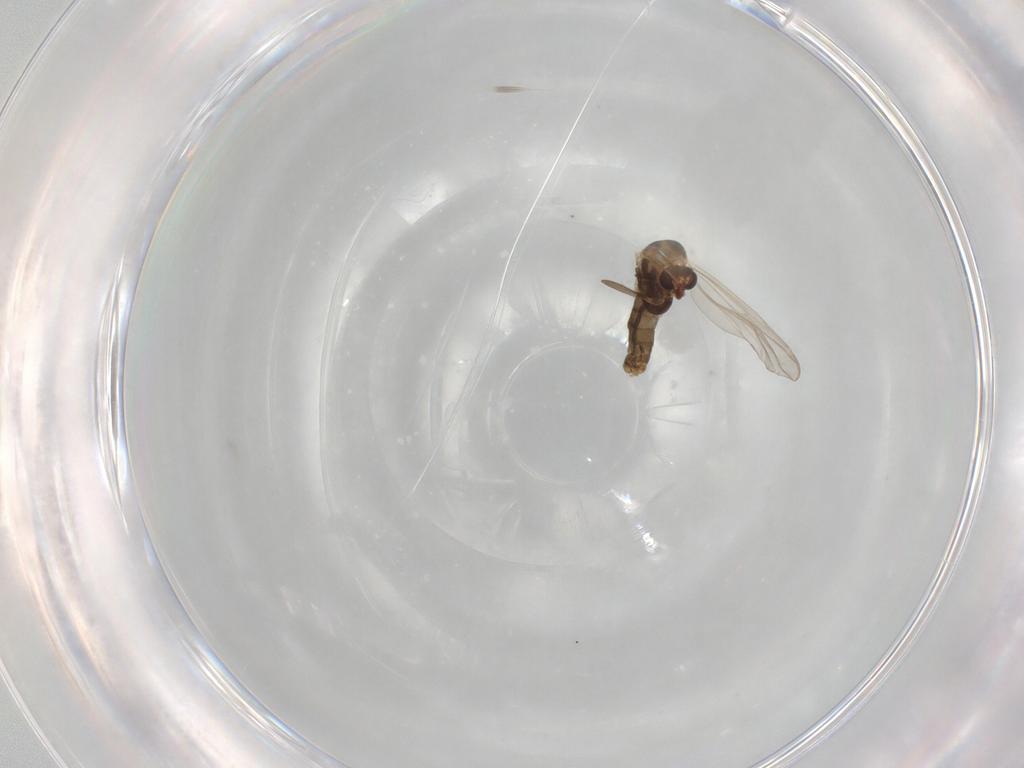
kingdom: Animalia
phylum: Arthropoda
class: Insecta
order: Diptera
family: Chironomidae
